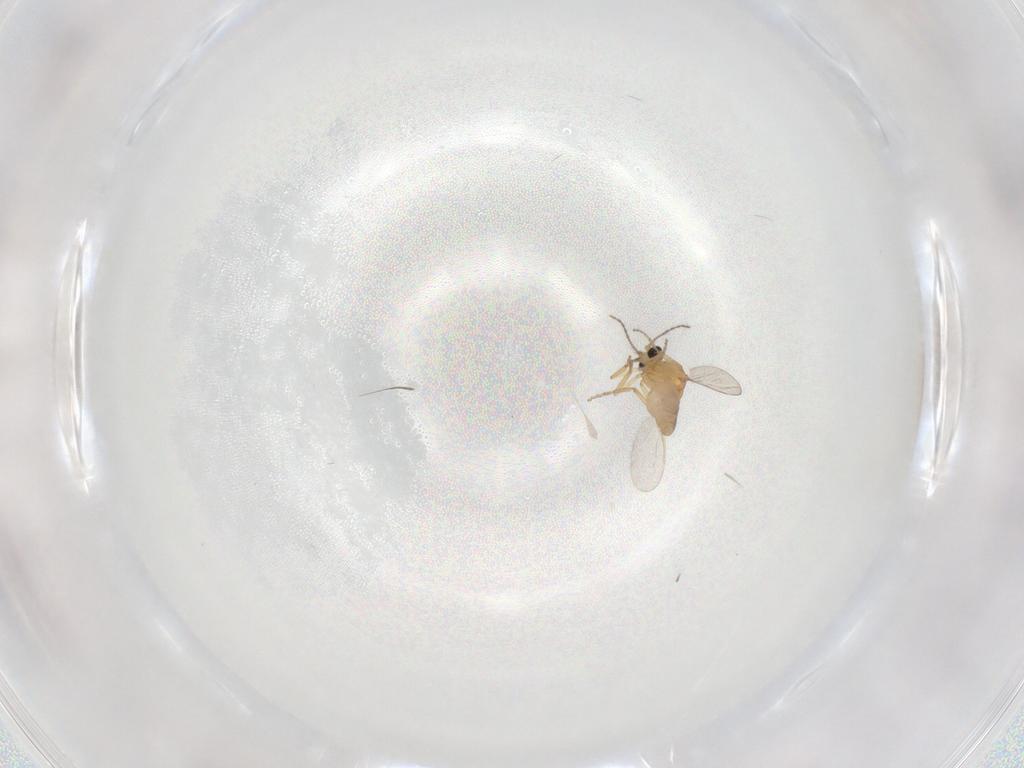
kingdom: Animalia
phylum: Arthropoda
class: Insecta
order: Diptera
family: Ceratopogonidae
